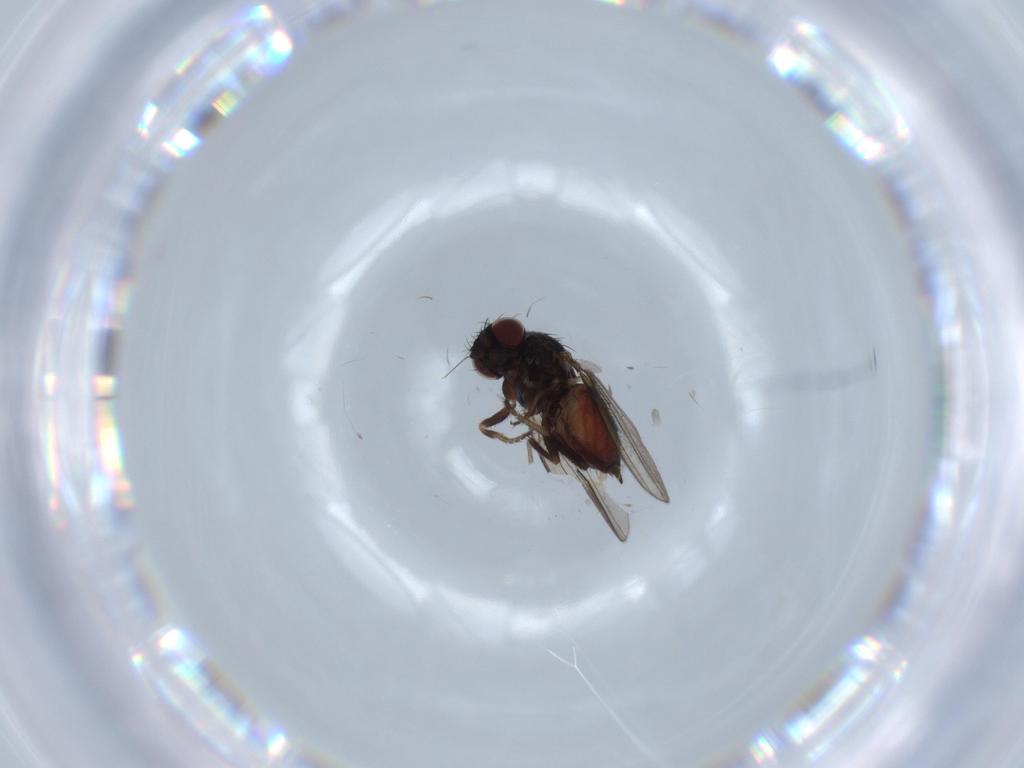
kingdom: Animalia
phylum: Arthropoda
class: Insecta
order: Diptera
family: Milichiidae
